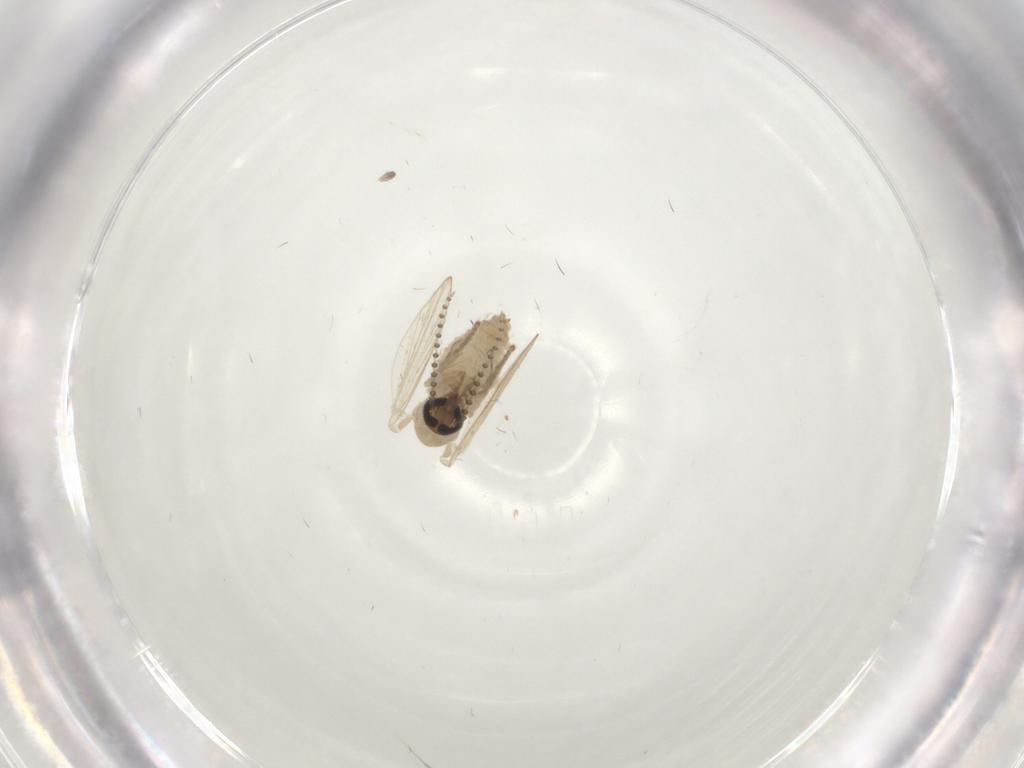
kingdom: Animalia
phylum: Arthropoda
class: Insecta
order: Diptera
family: Psychodidae
